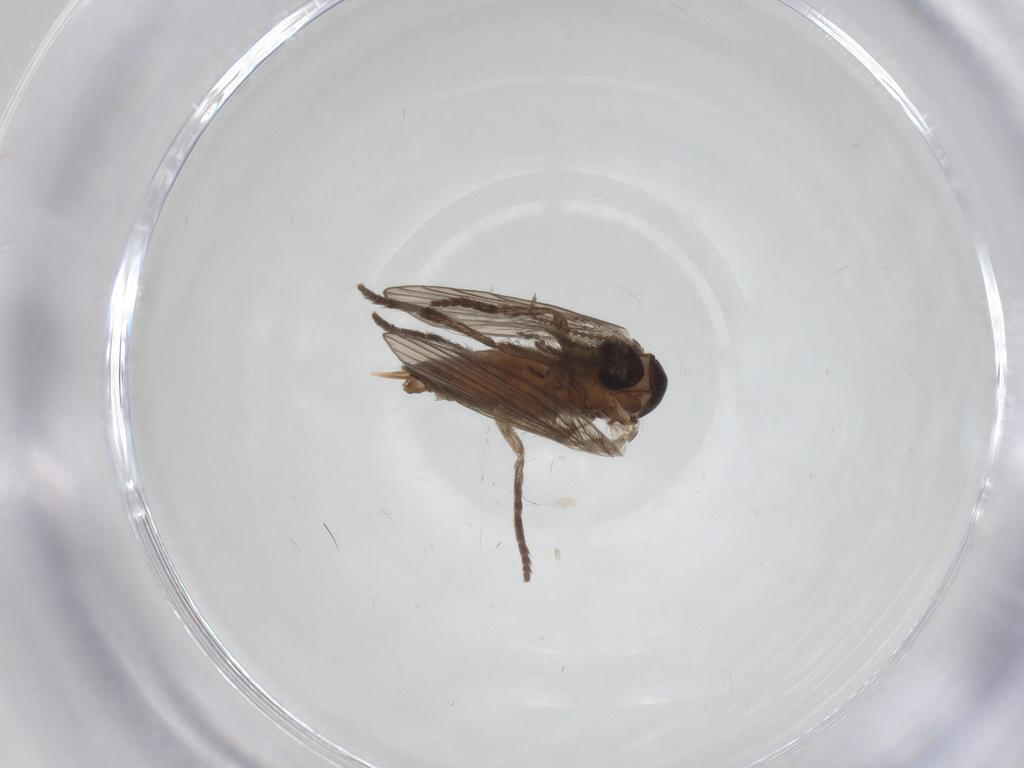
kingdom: Animalia
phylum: Arthropoda
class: Insecta
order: Diptera
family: Psychodidae
